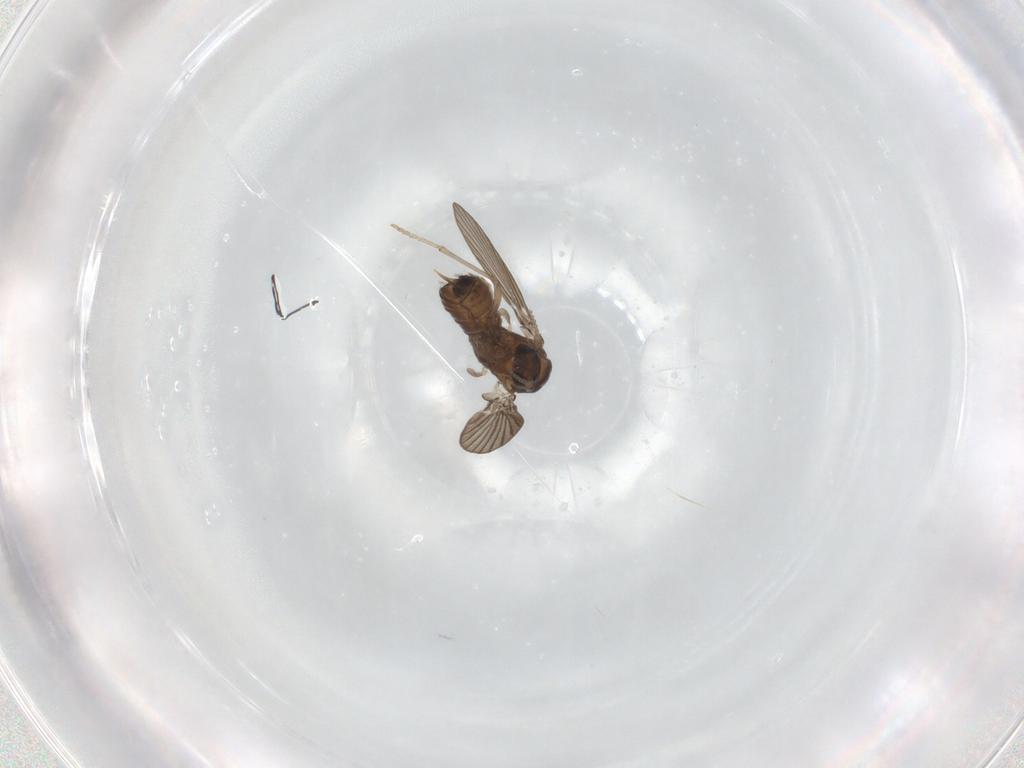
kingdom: Animalia
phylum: Arthropoda
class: Insecta
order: Diptera
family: Psychodidae
